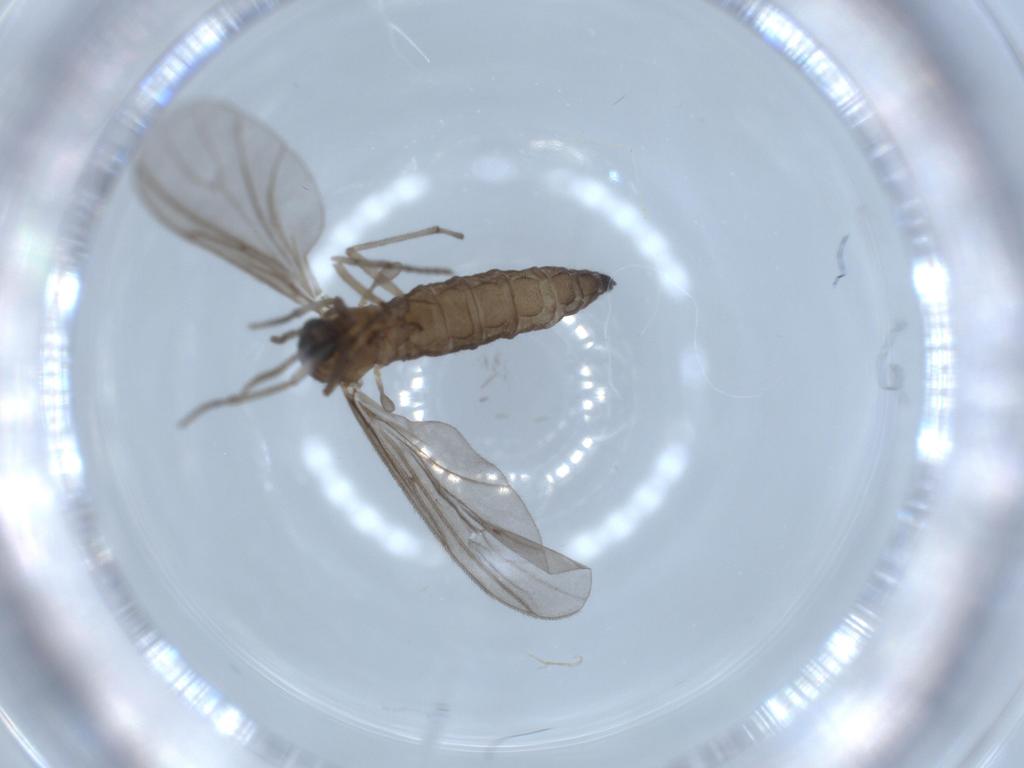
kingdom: Animalia
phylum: Arthropoda
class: Insecta
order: Diptera
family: Sciaridae
